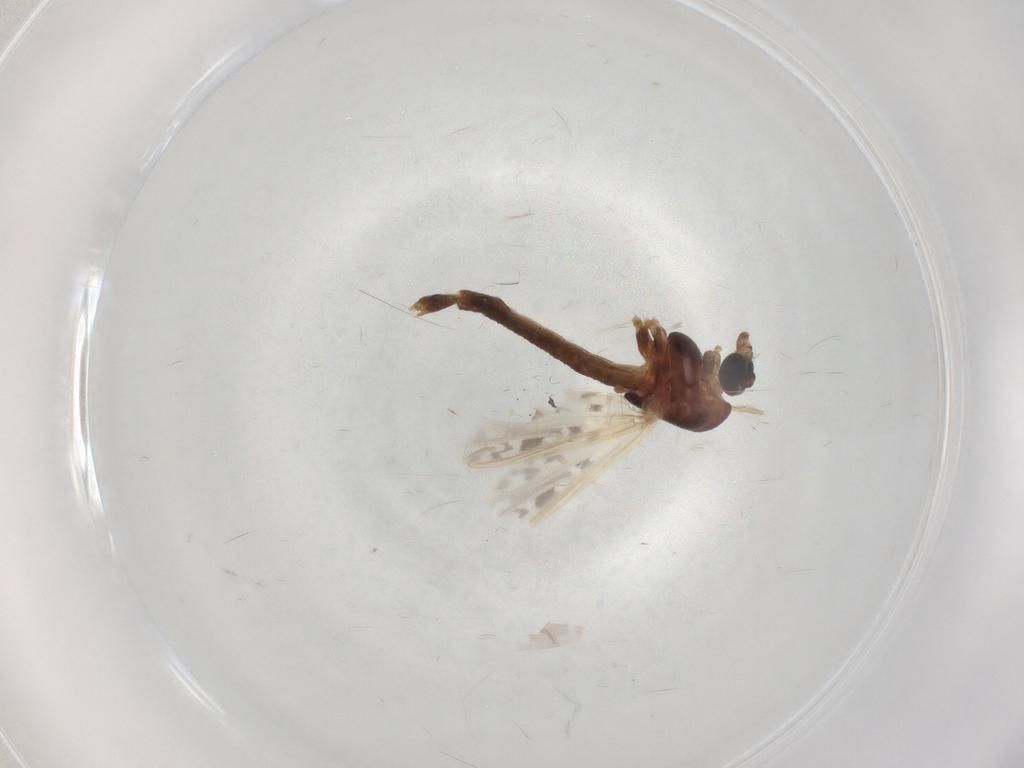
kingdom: Animalia
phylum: Arthropoda
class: Insecta
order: Diptera
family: Chironomidae
